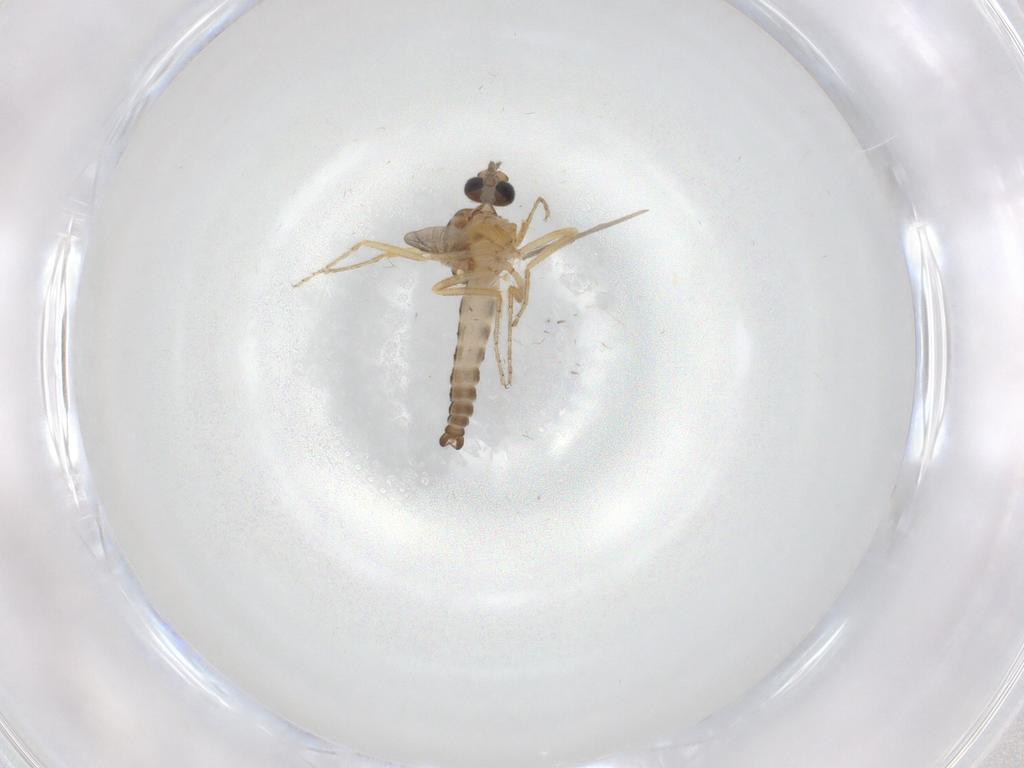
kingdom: Animalia
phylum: Arthropoda
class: Insecta
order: Diptera
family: Ceratopogonidae
